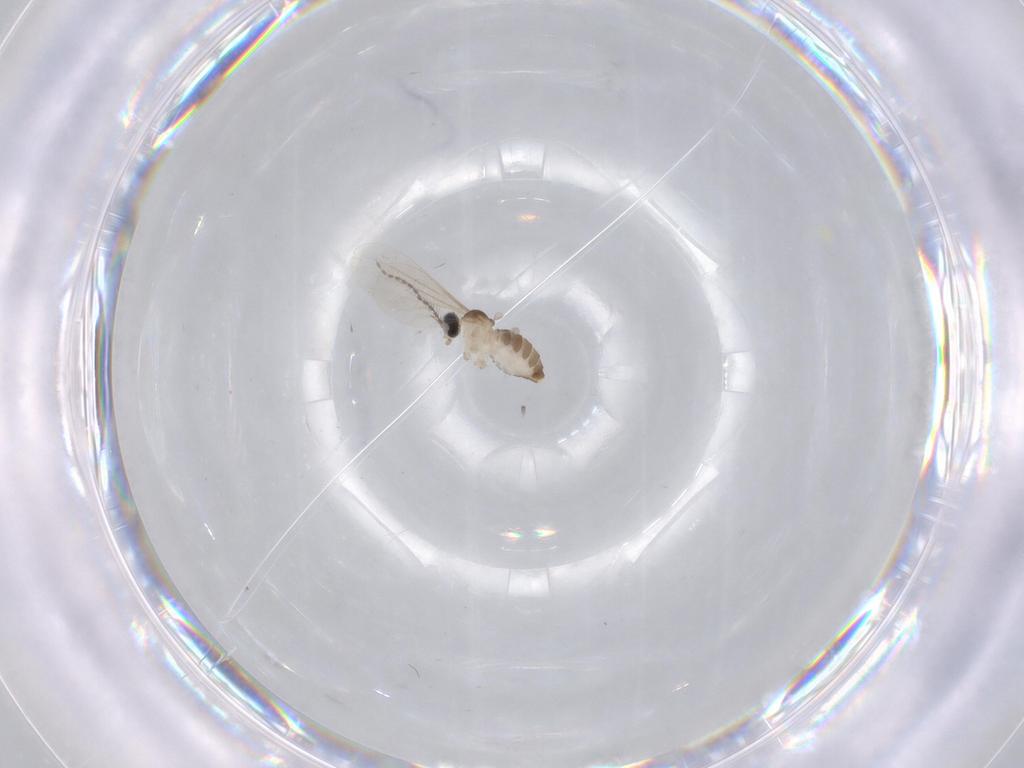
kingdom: Animalia
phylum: Arthropoda
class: Insecta
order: Diptera
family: Cecidomyiidae
